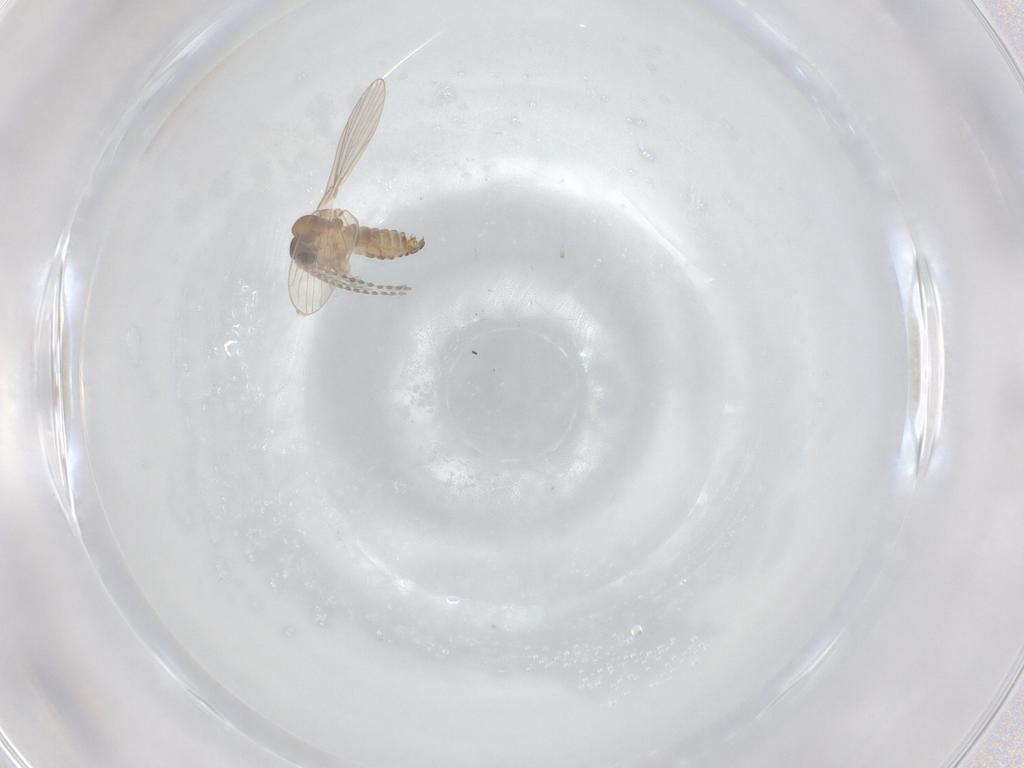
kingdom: Animalia
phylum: Arthropoda
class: Insecta
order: Diptera
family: Psychodidae
